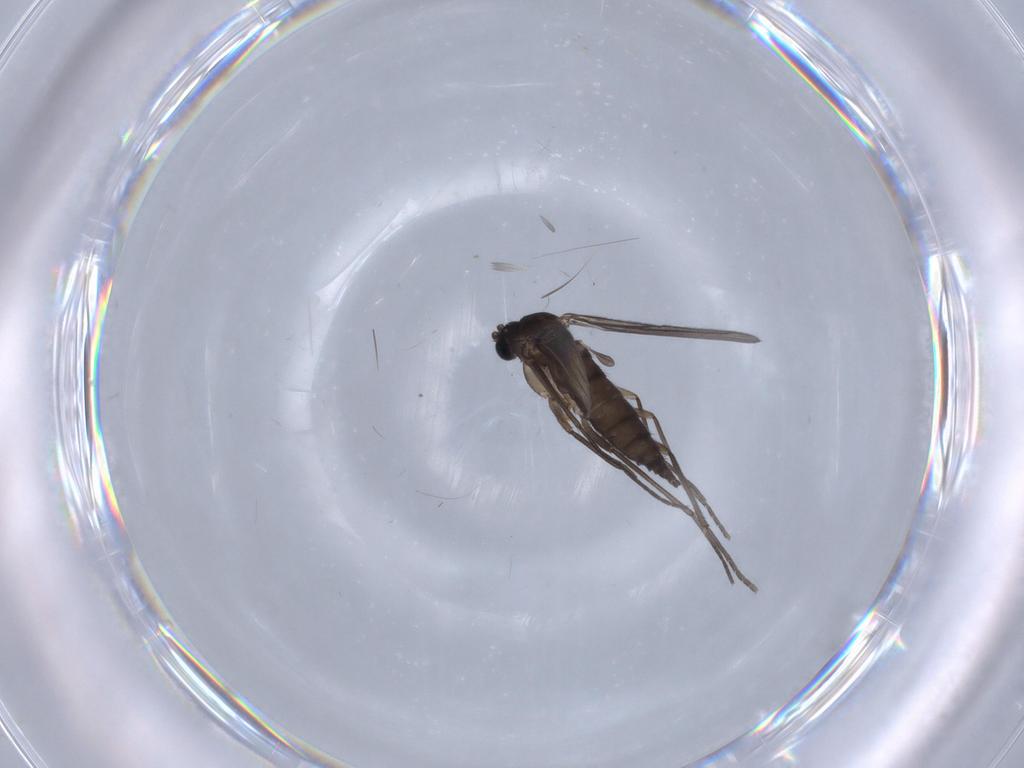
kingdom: Animalia
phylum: Arthropoda
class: Insecta
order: Diptera
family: Sciaridae
